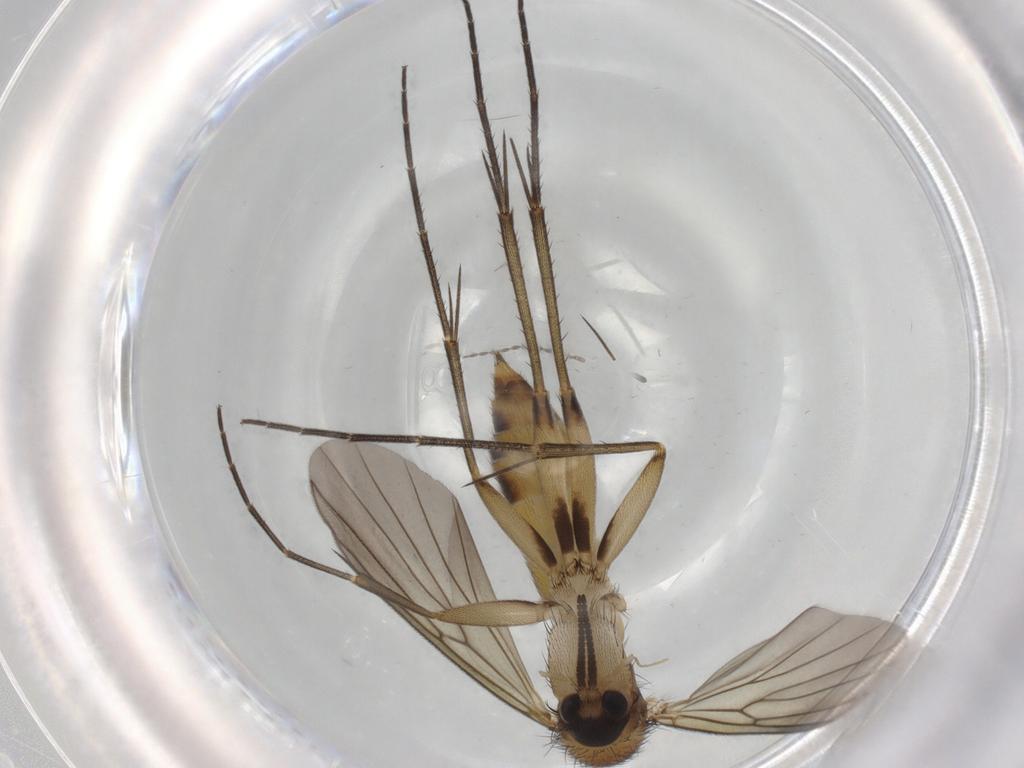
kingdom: Animalia
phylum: Arthropoda
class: Insecta
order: Diptera
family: Mycetophilidae
